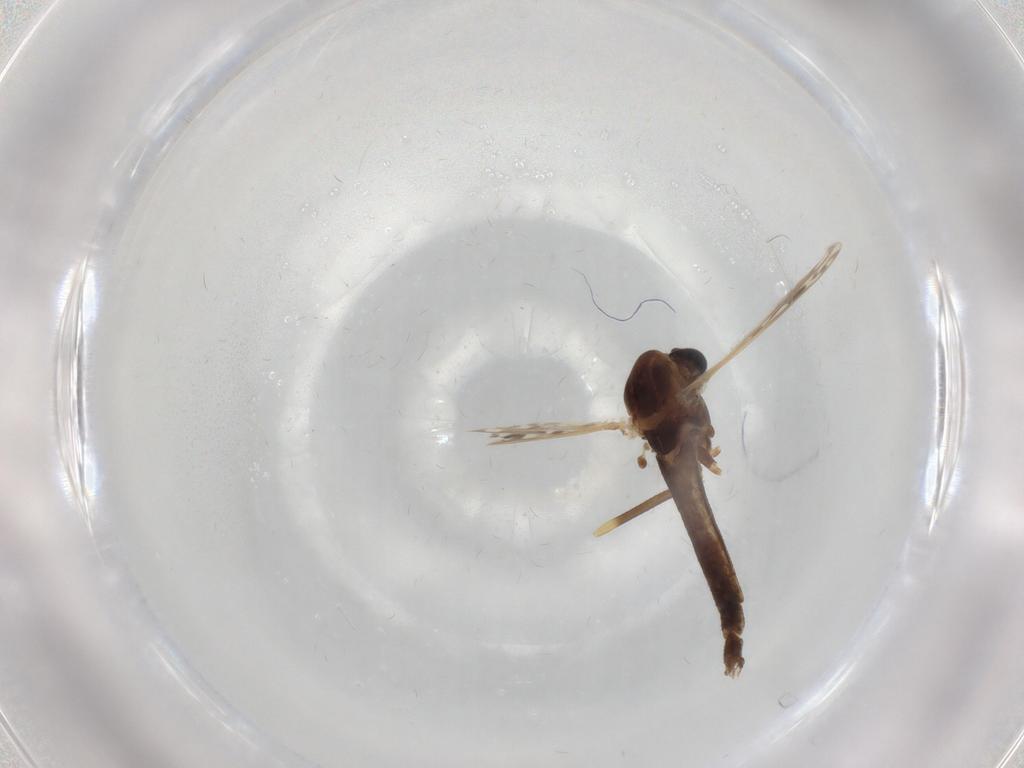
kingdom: Animalia
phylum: Arthropoda
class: Insecta
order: Diptera
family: Chironomidae
